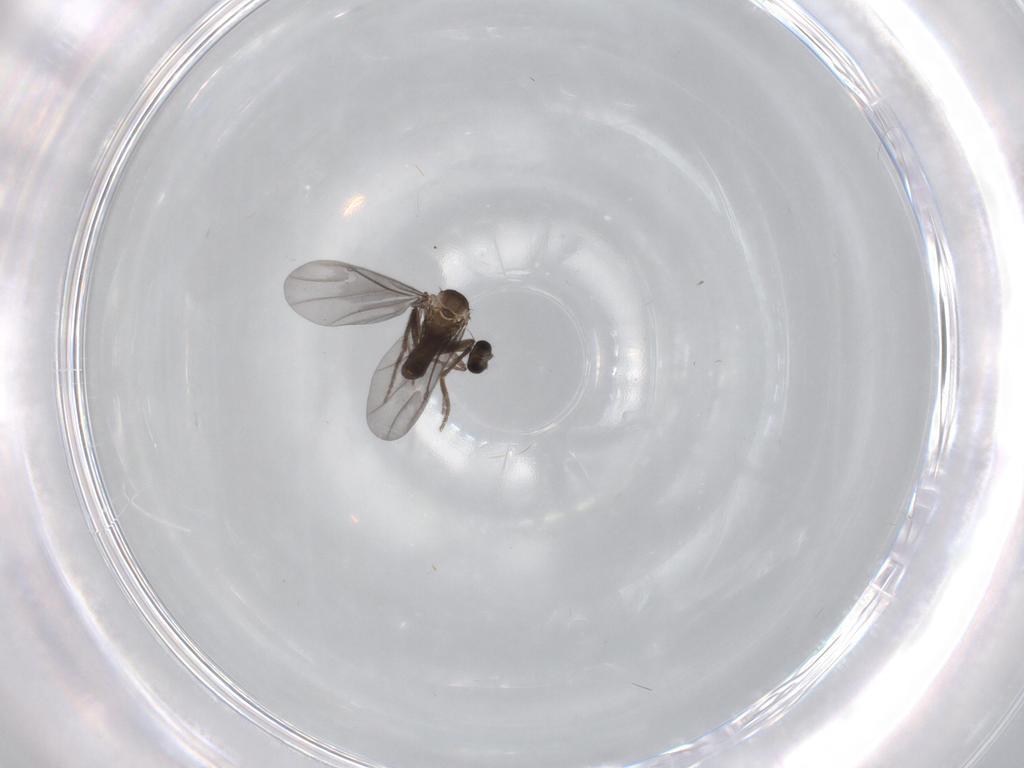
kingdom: Animalia
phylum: Arthropoda
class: Insecta
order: Diptera
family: Phoridae
